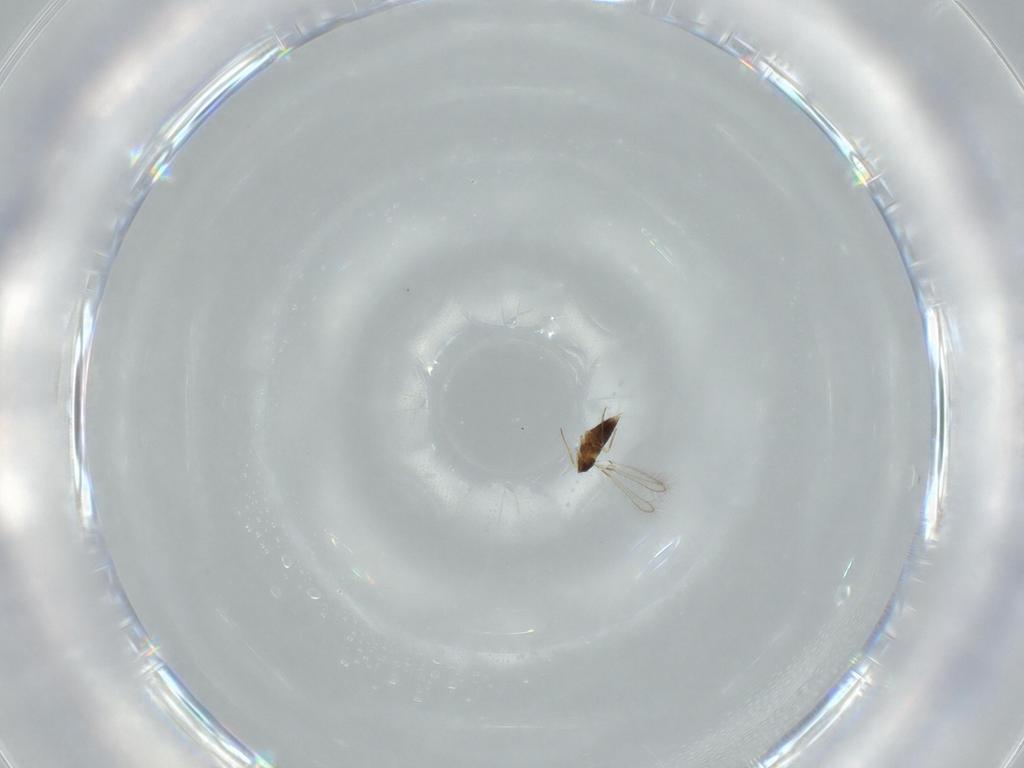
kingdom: Animalia
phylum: Arthropoda
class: Insecta
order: Hymenoptera
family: Mymaridae
